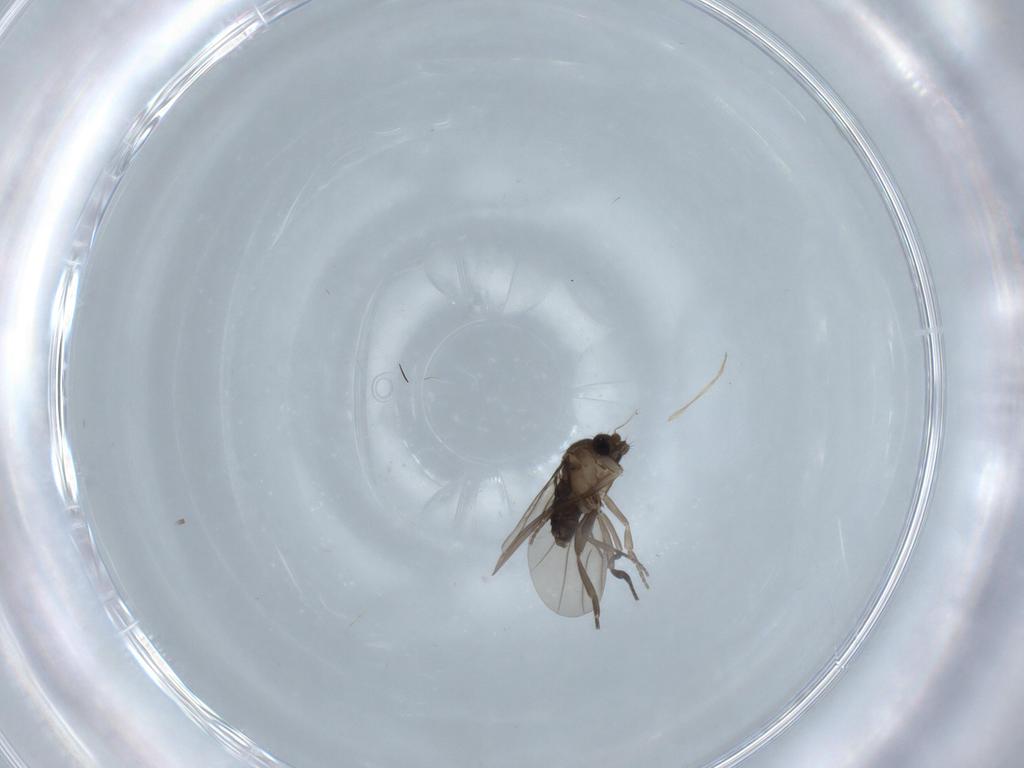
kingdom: Animalia
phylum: Arthropoda
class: Insecta
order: Diptera
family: Phoridae
